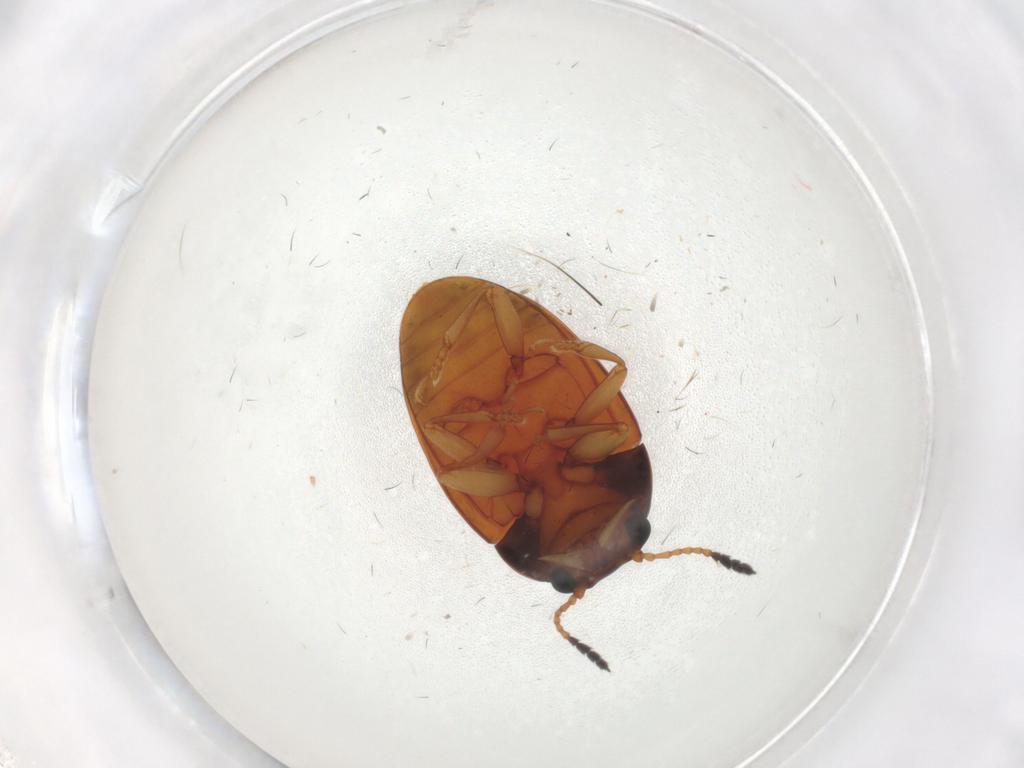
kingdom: Animalia
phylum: Arthropoda
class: Insecta
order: Coleoptera
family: Erotylidae
